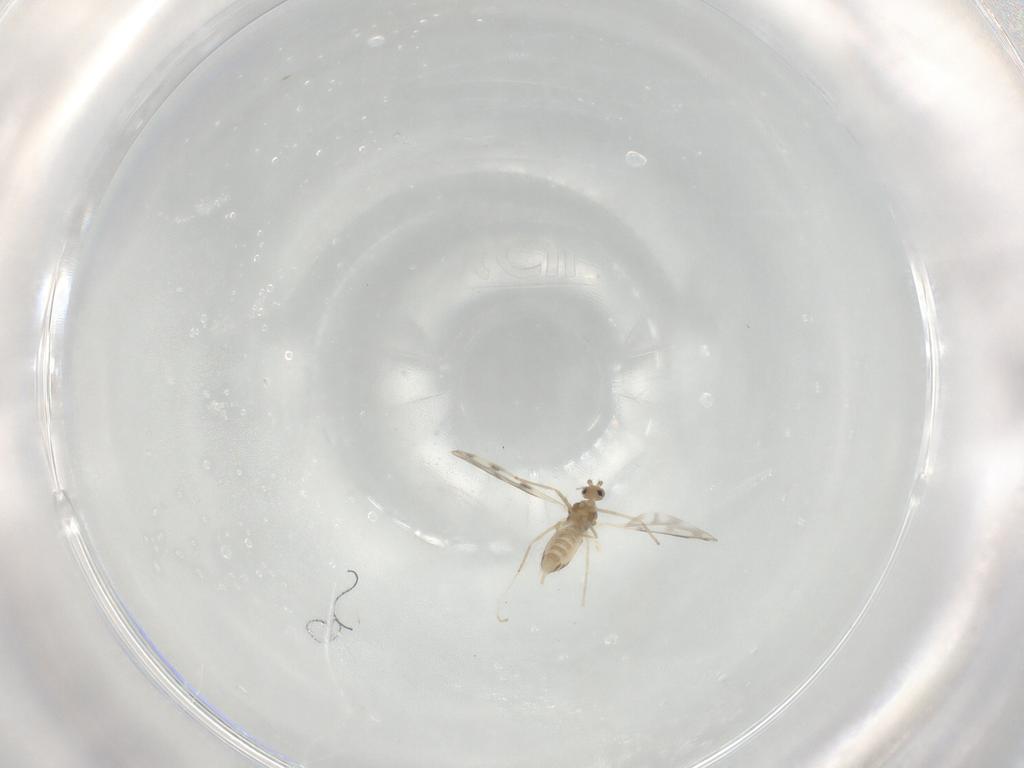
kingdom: Animalia
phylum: Arthropoda
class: Insecta
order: Diptera
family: Cecidomyiidae
